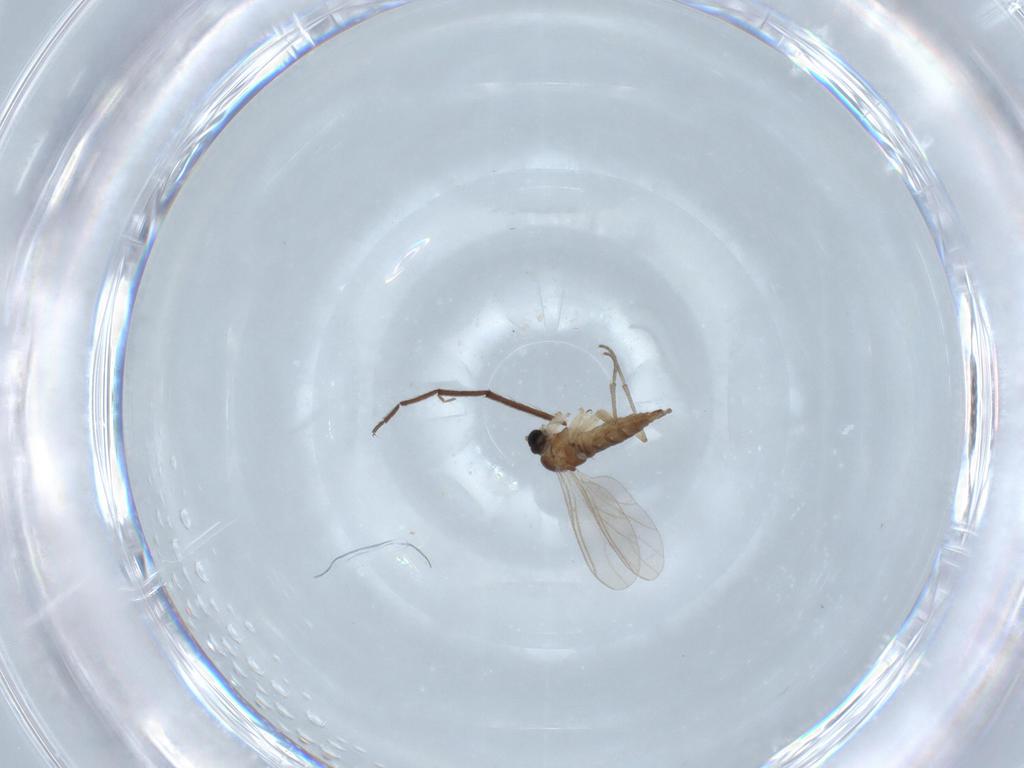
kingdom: Animalia
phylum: Arthropoda
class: Insecta
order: Diptera
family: Sciaridae
